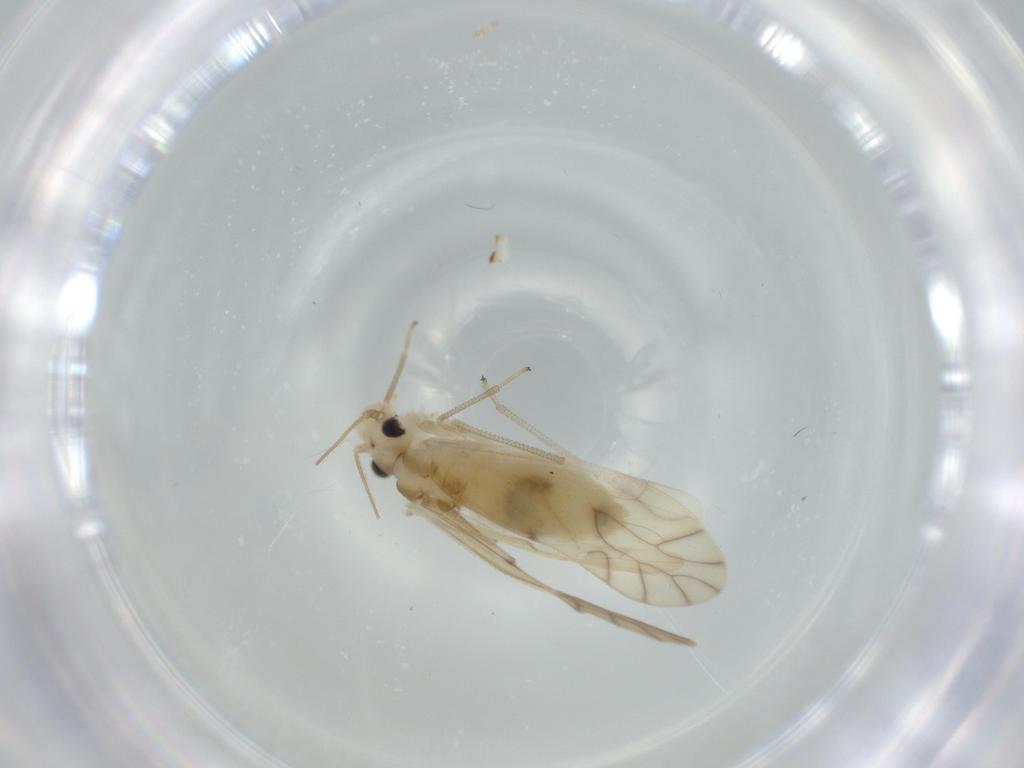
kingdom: Animalia
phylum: Arthropoda
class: Insecta
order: Psocodea
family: Caeciliusidae
